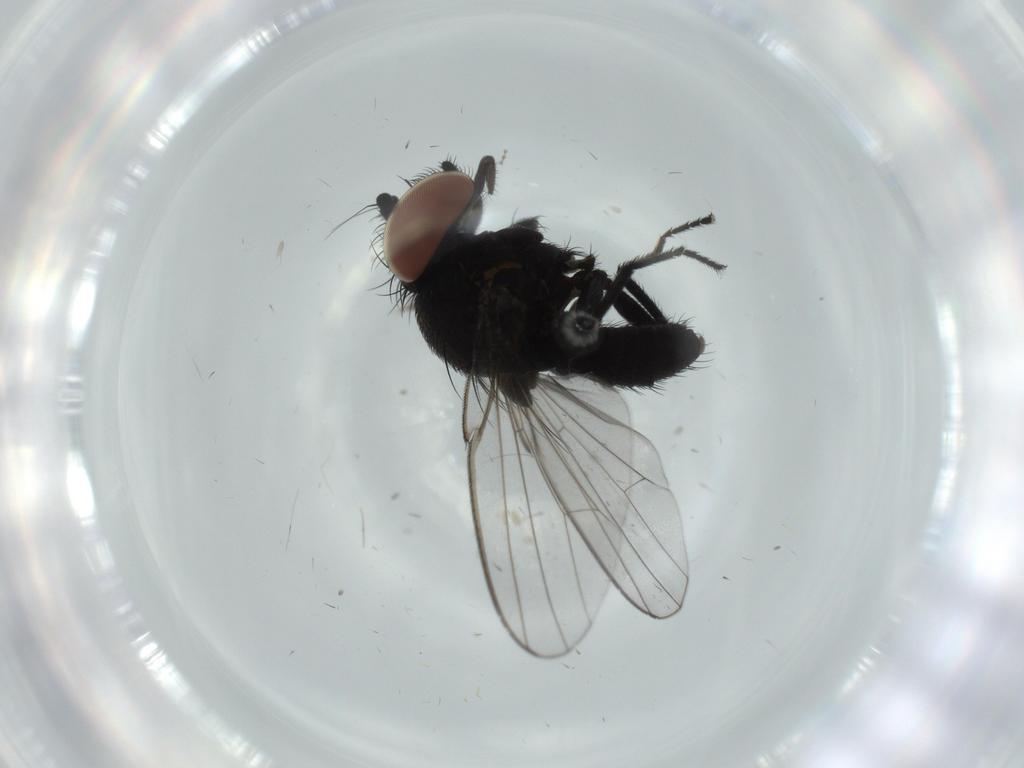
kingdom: Animalia
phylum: Arthropoda
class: Insecta
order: Diptera
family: Milichiidae
